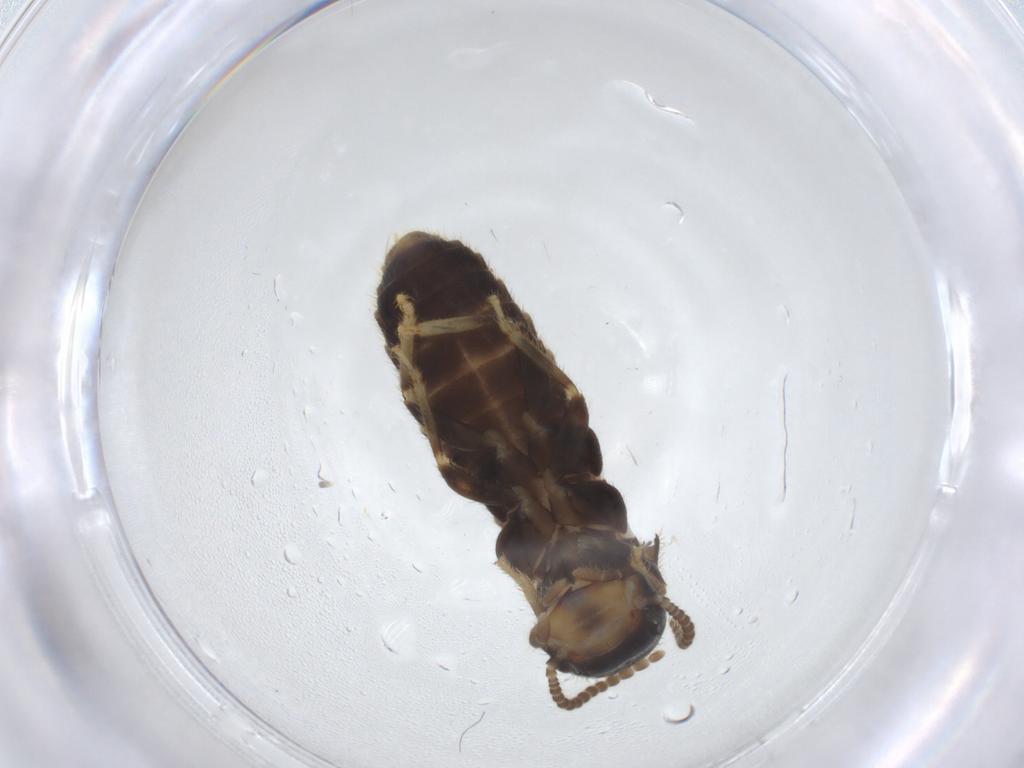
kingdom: Animalia
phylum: Arthropoda
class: Insecta
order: Blattodea
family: Rhinotermitidae
